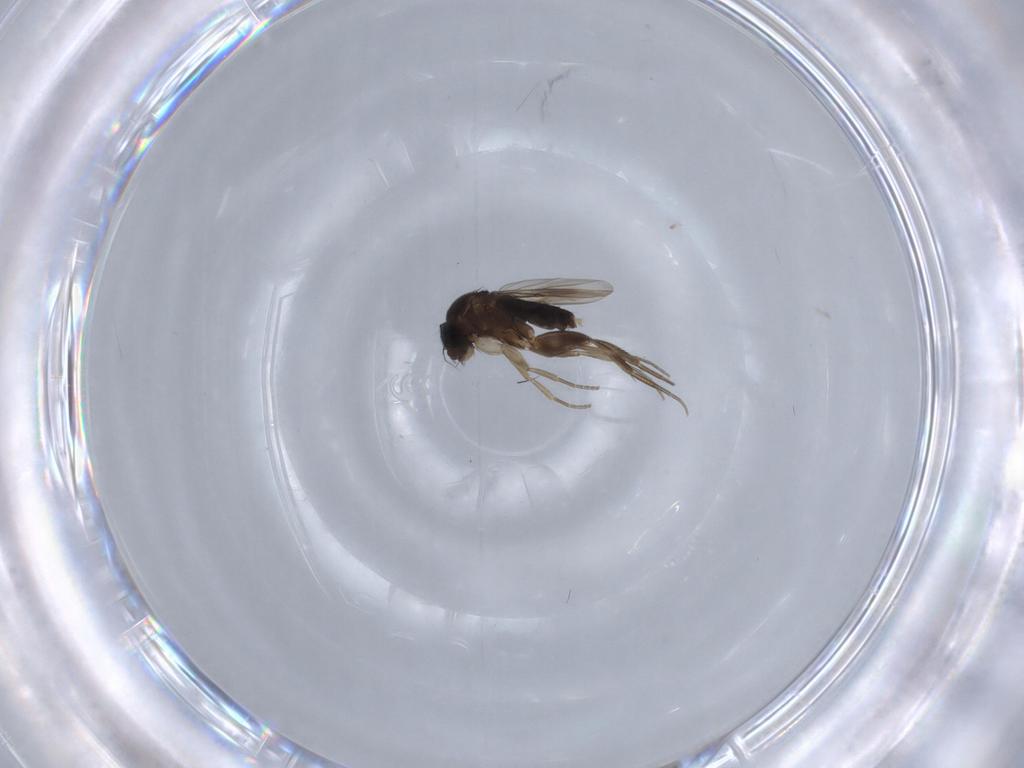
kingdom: Animalia
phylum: Arthropoda
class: Insecta
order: Diptera
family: Phoridae
